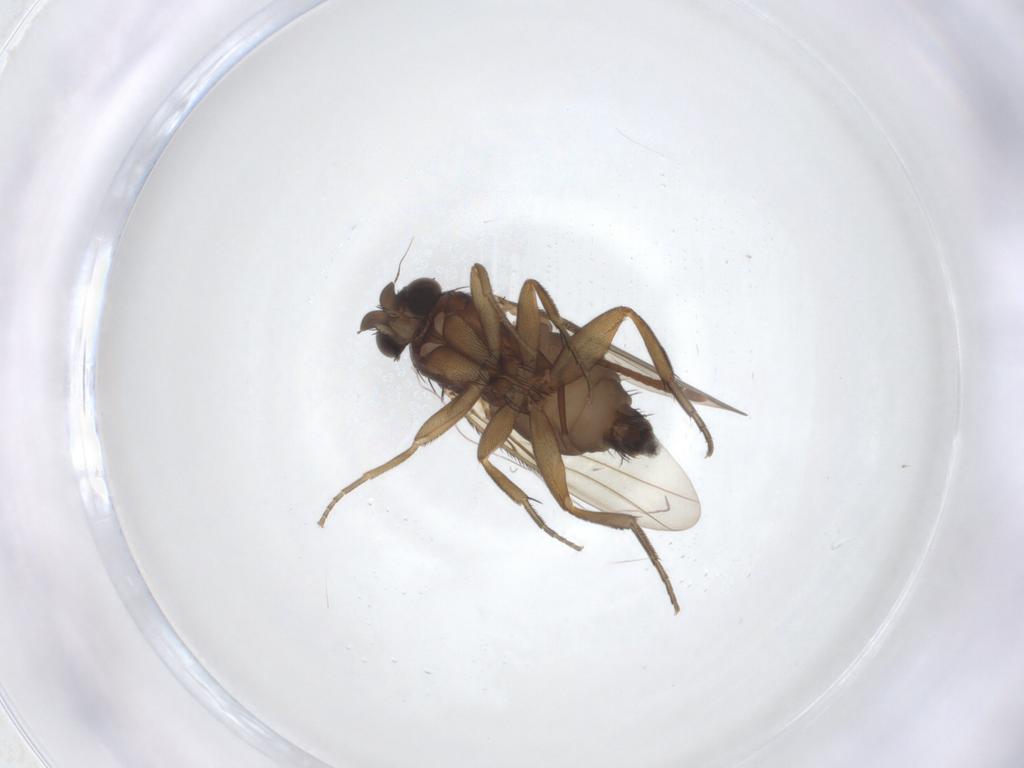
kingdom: Animalia
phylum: Arthropoda
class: Insecta
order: Diptera
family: Phoridae
